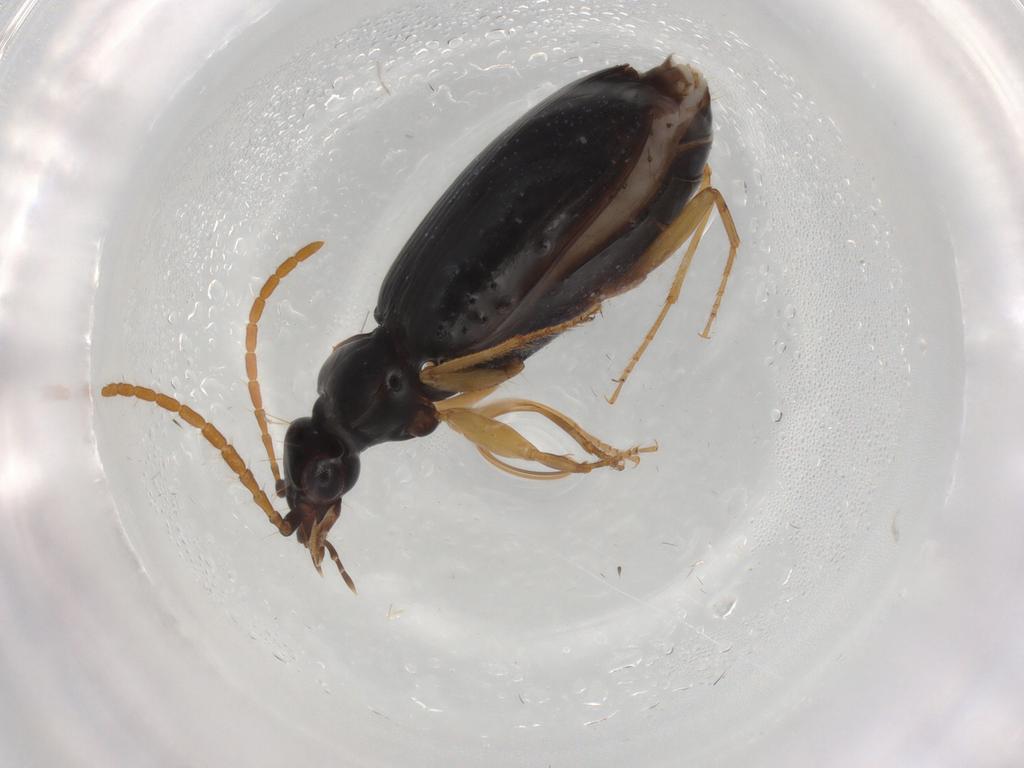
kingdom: Animalia
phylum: Arthropoda
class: Insecta
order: Coleoptera
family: Carabidae
